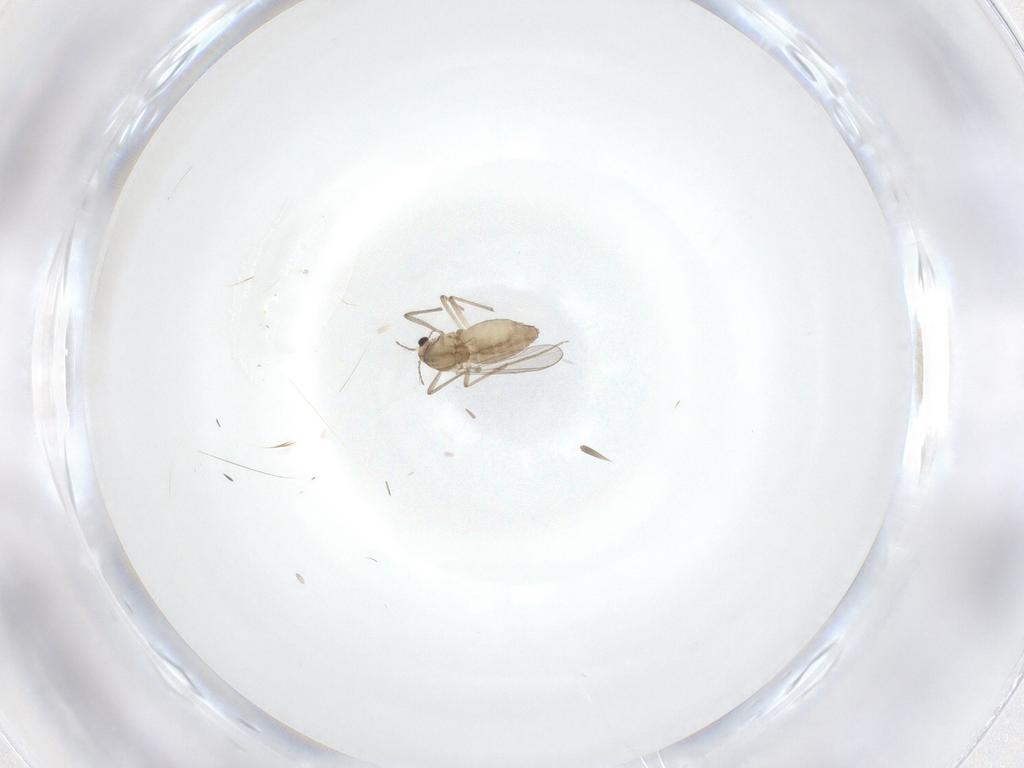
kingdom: Animalia
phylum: Arthropoda
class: Insecta
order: Diptera
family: Chironomidae
